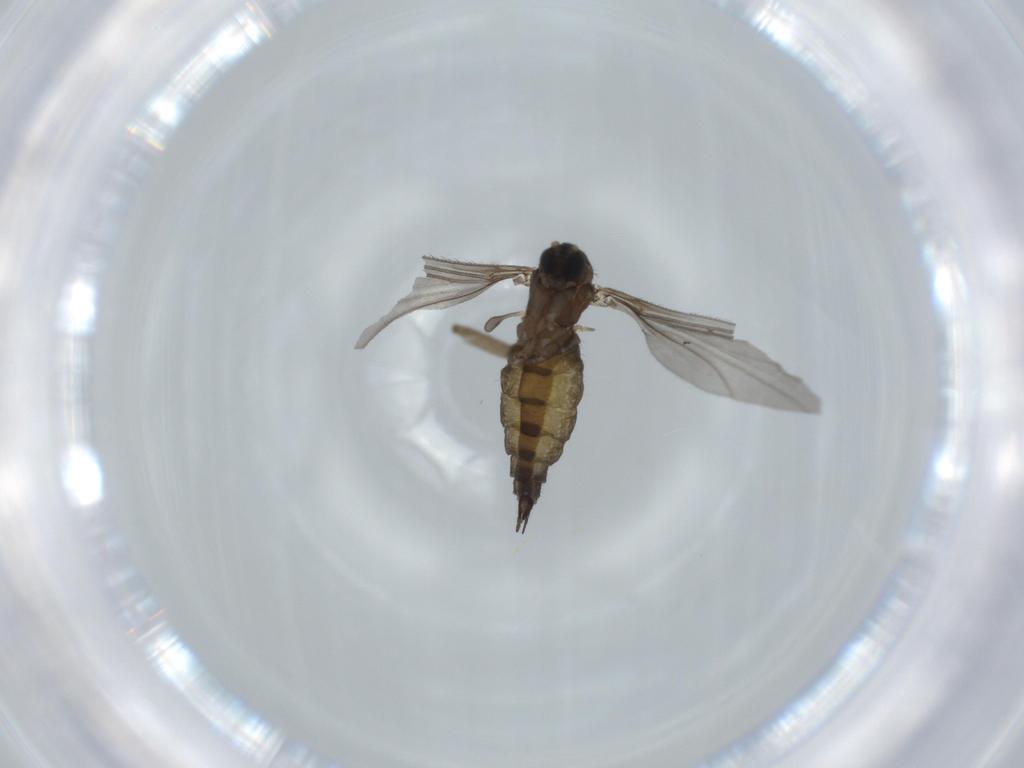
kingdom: Animalia
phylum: Arthropoda
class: Insecta
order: Diptera
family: Sciaridae
